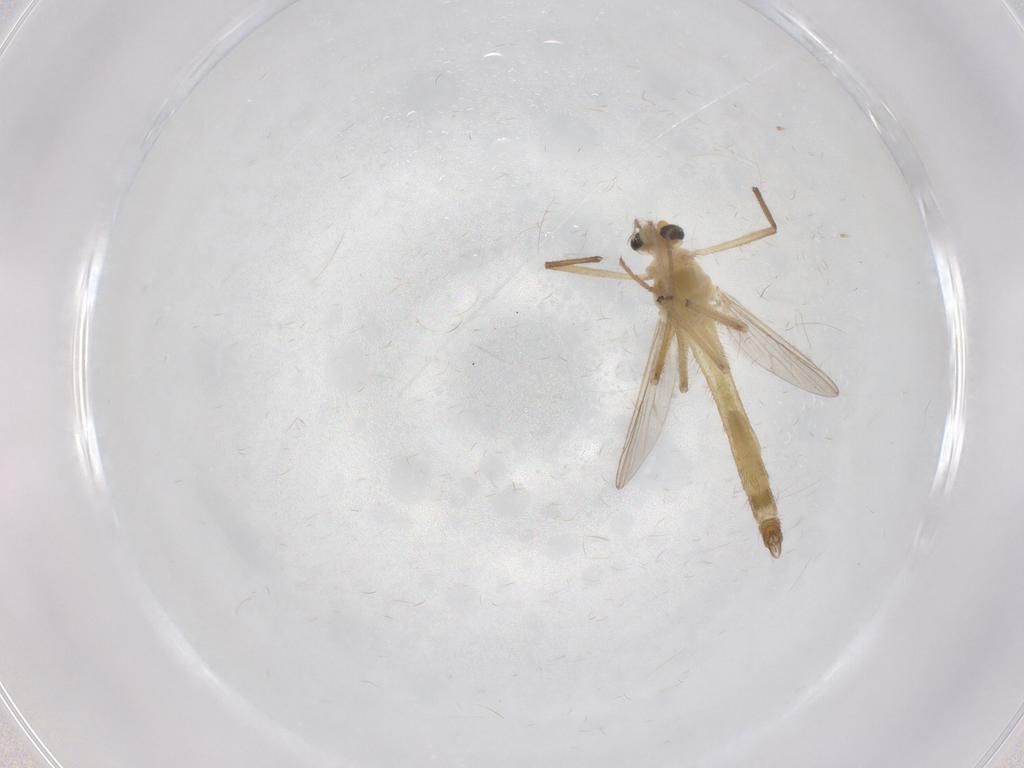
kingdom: Animalia
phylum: Arthropoda
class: Insecta
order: Diptera
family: Chironomidae
